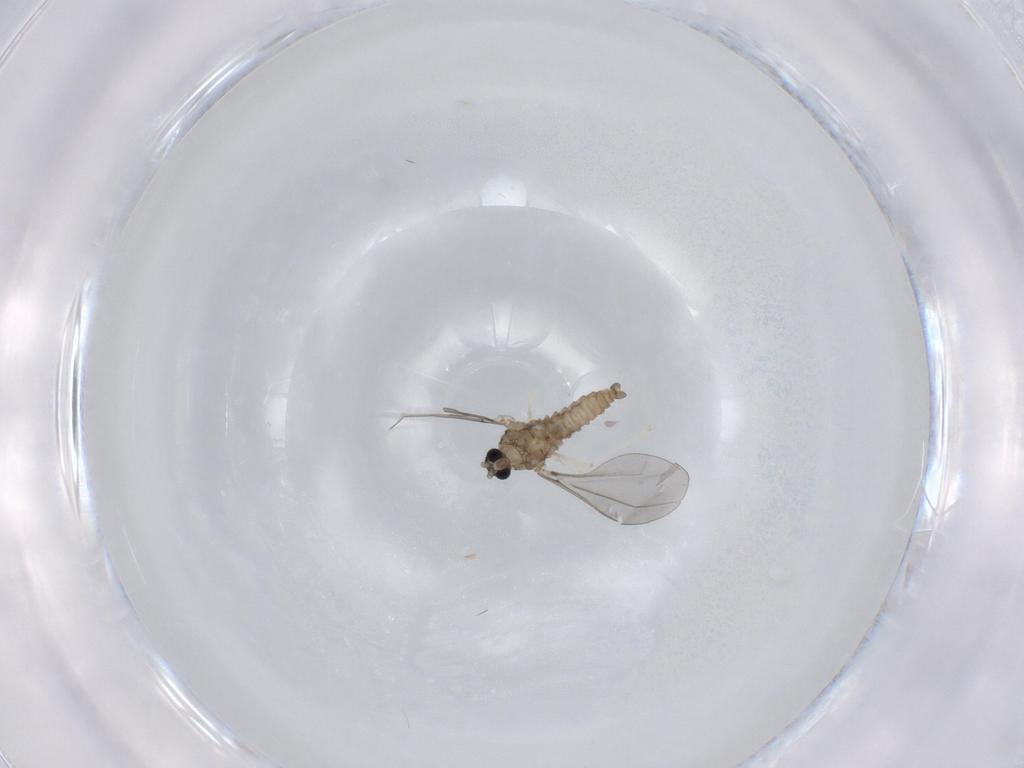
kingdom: Animalia
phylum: Arthropoda
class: Insecta
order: Diptera
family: Cecidomyiidae
